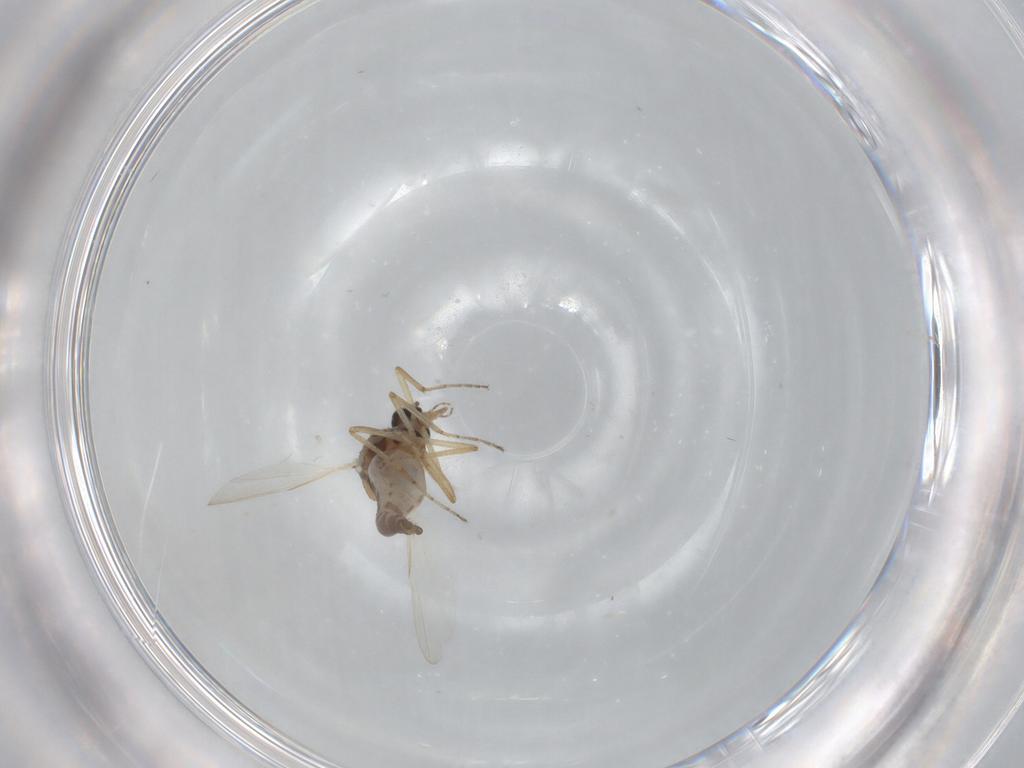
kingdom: Animalia
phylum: Arthropoda
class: Insecta
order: Diptera
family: Ceratopogonidae
